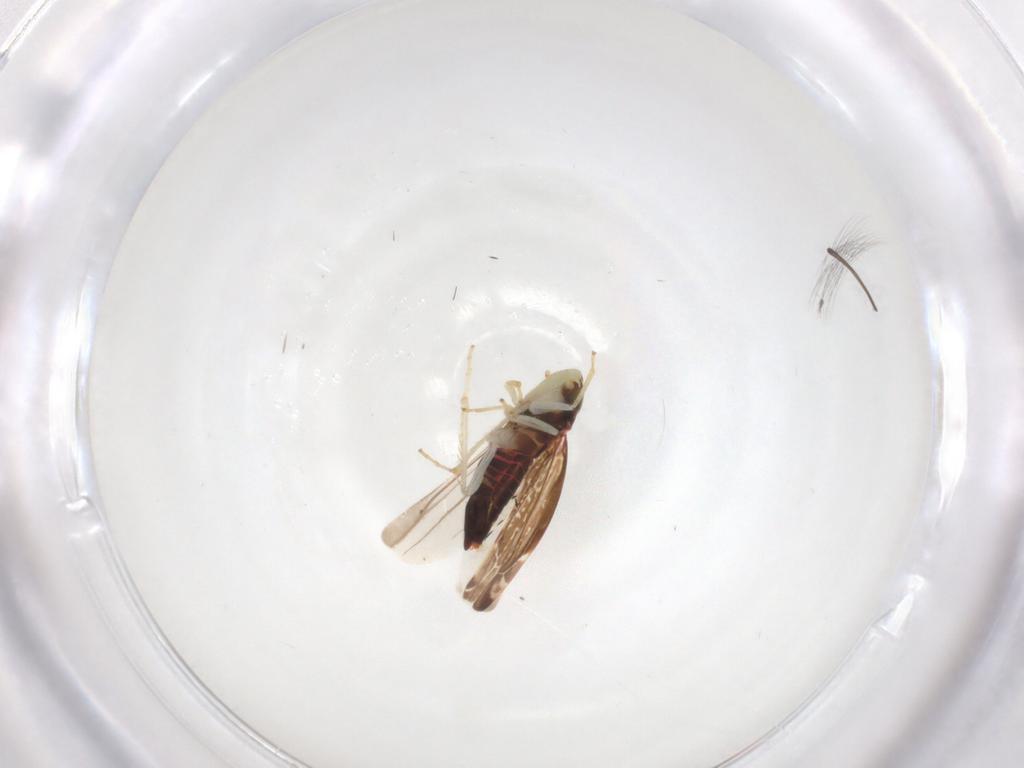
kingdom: Animalia
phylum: Arthropoda
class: Insecta
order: Hemiptera
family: Cicadellidae
